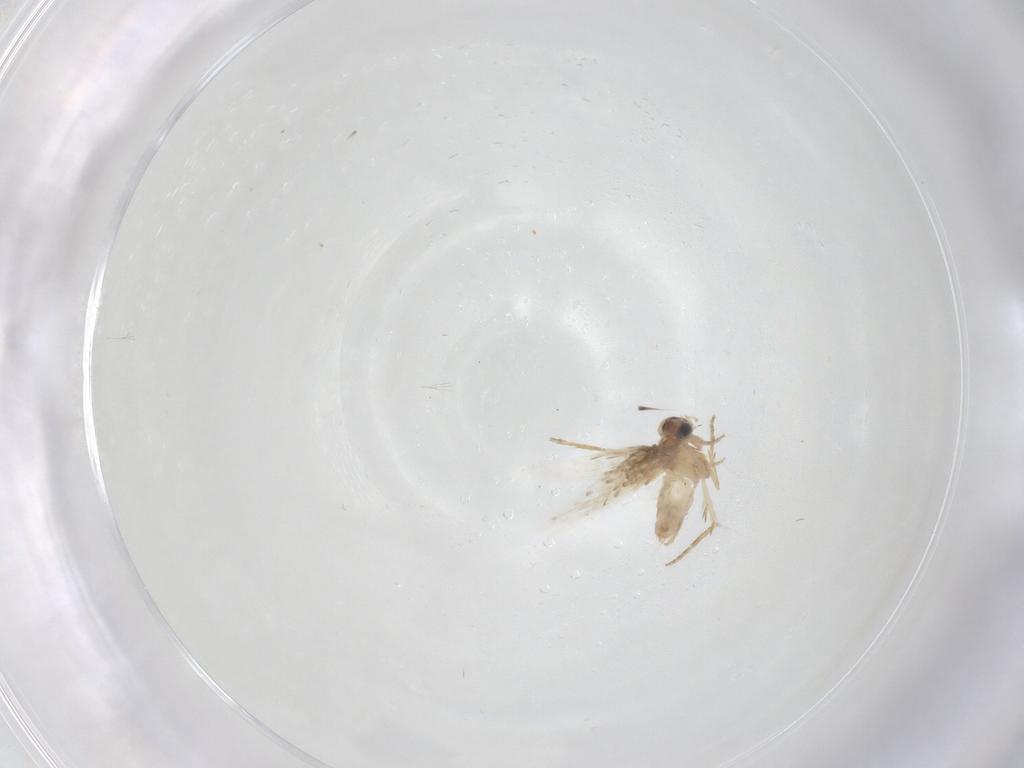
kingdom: Animalia
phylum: Arthropoda
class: Insecta
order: Lepidoptera
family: Nepticulidae
